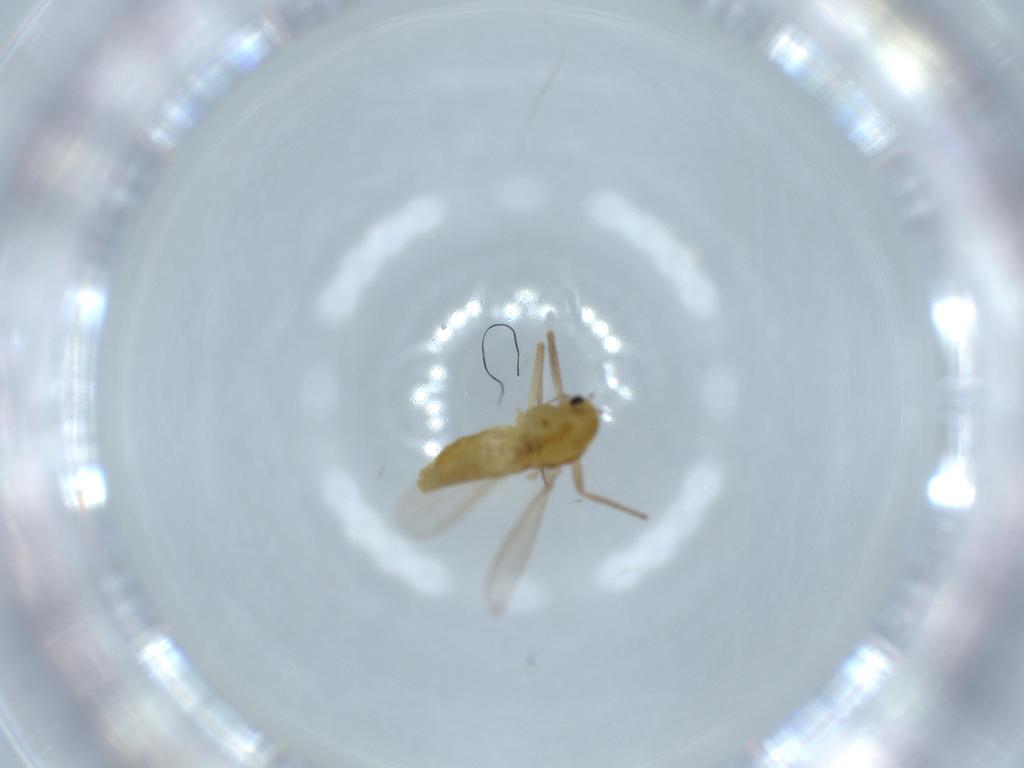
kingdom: Animalia
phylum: Arthropoda
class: Insecta
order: Diptera
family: Chironomidae
